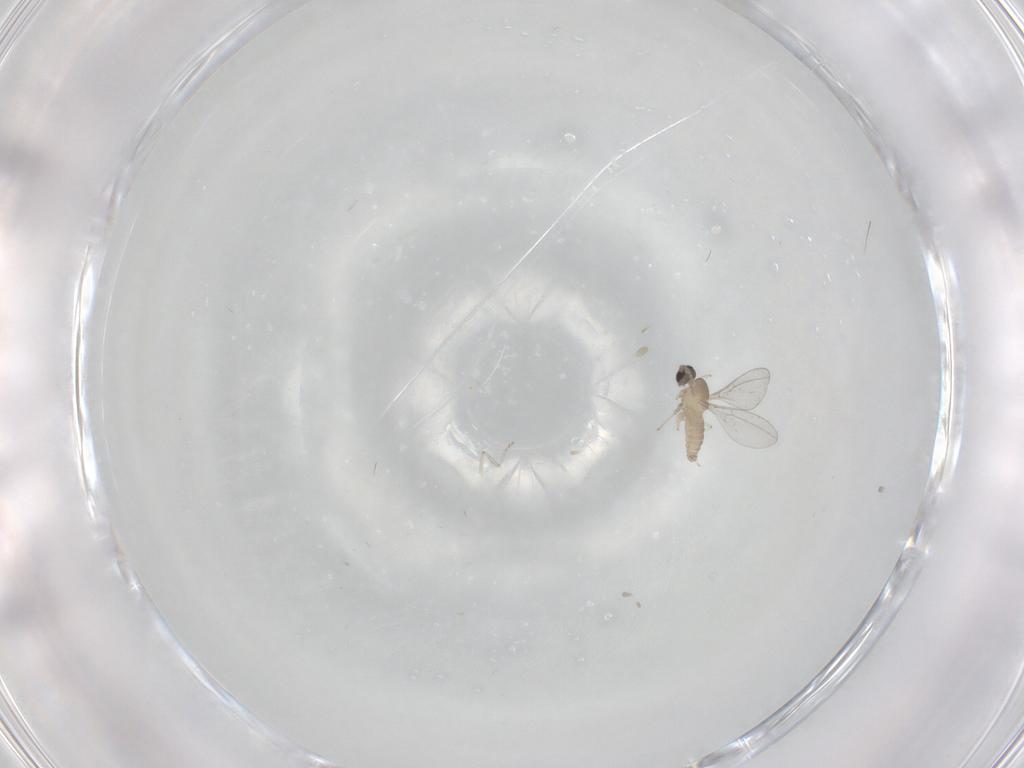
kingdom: Animalia
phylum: Arthropoda
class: Insecta
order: Diptera
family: Cecidomyiidae
